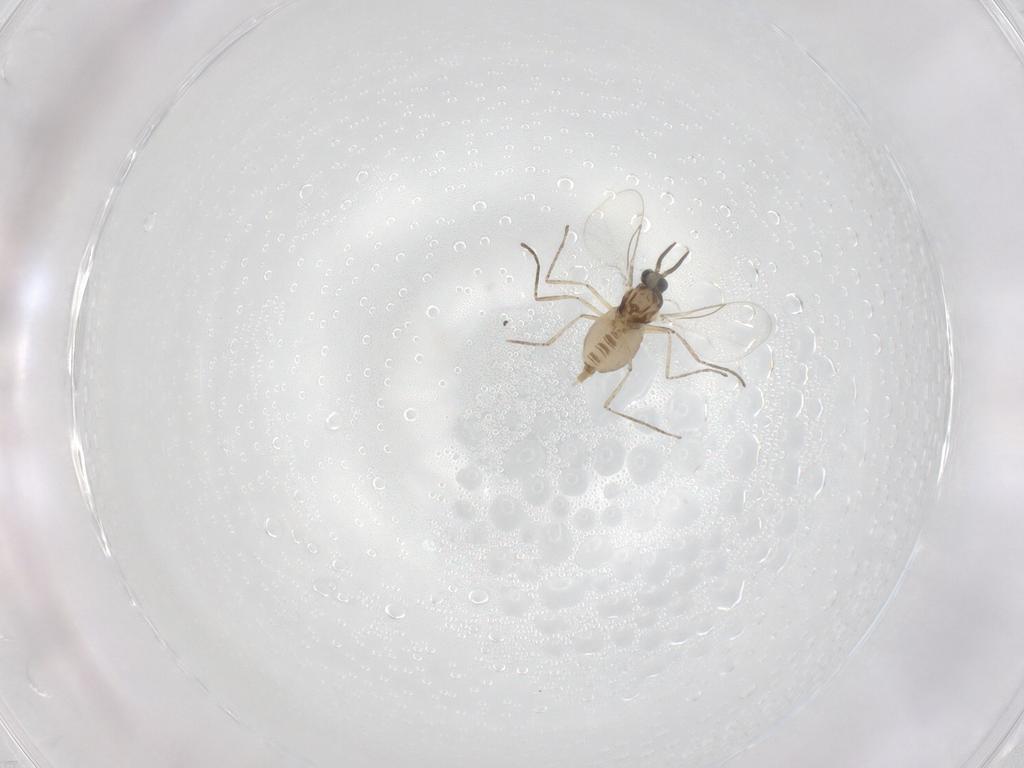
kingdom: Animalia
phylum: Arthropoda
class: Insecta
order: Diptera
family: Cecidomyiidae
